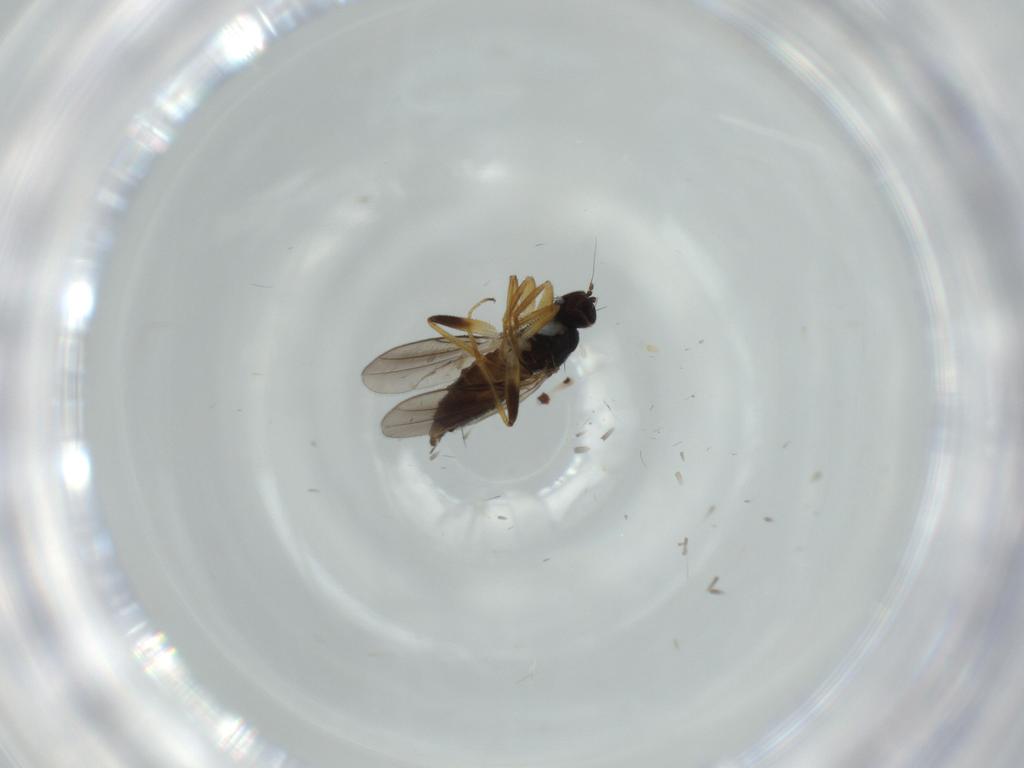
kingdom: Animalia
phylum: Arthropoda
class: Insecta
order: Diptera
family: Hybotidae
